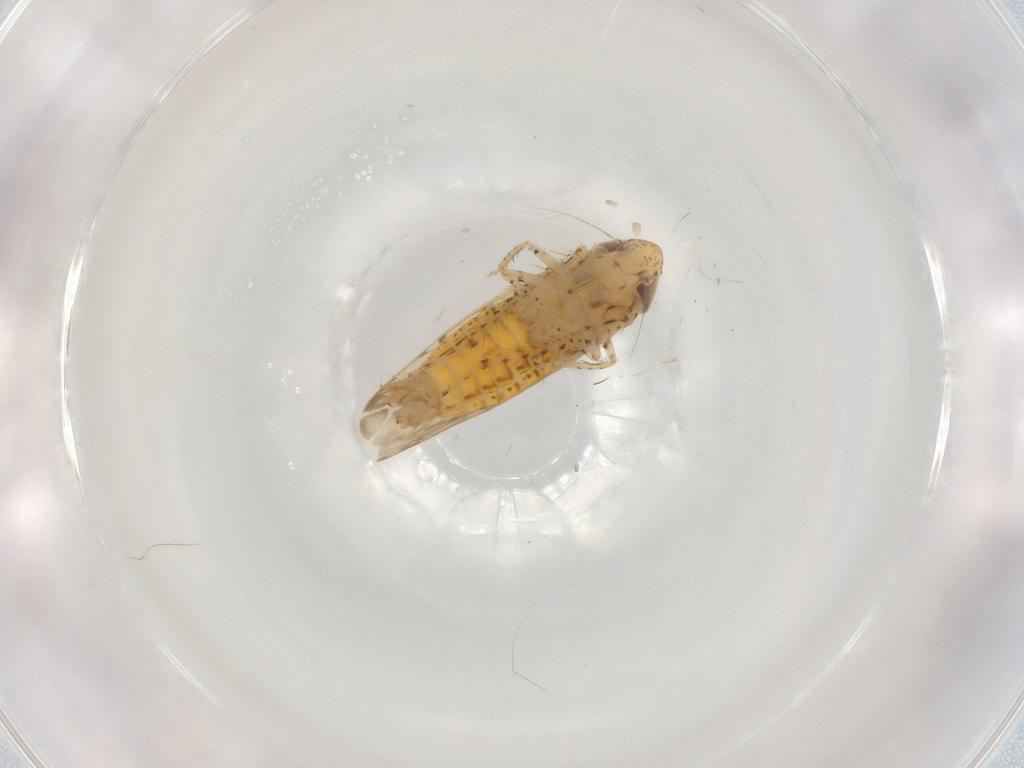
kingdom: Animalia
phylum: Arthropoda
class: Insecta
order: Hemiptera
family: Cicadellidae
